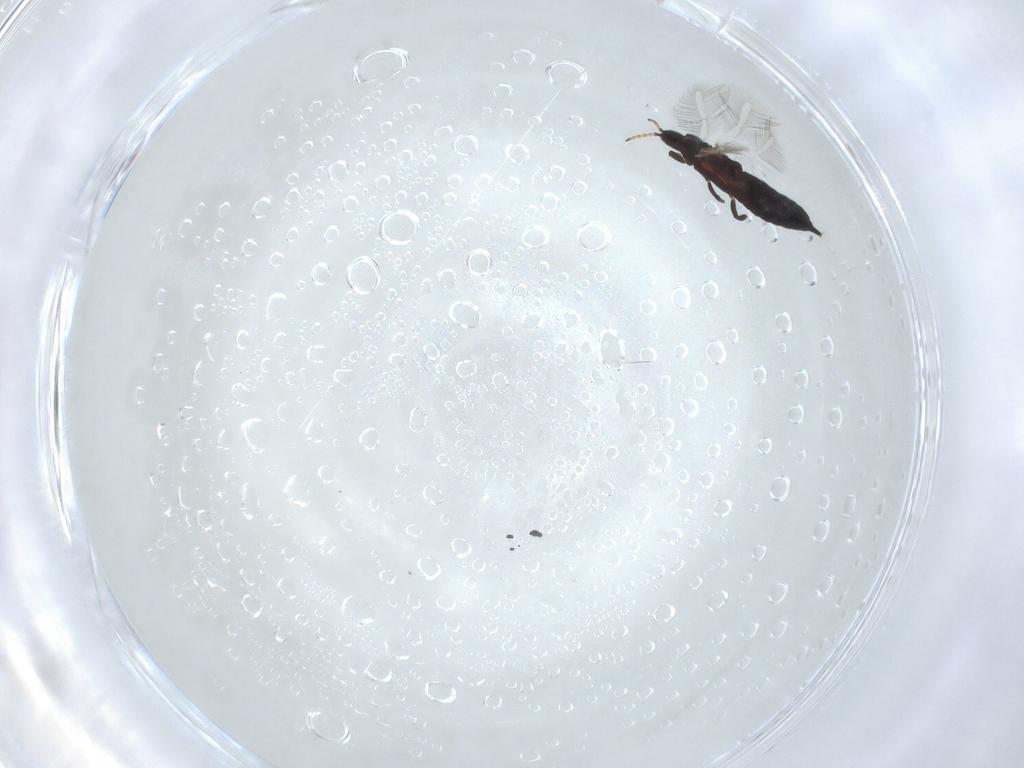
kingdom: Animalia
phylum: Arthropoda
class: Insecta
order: Thysanoptera
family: Phlaeothripidae
